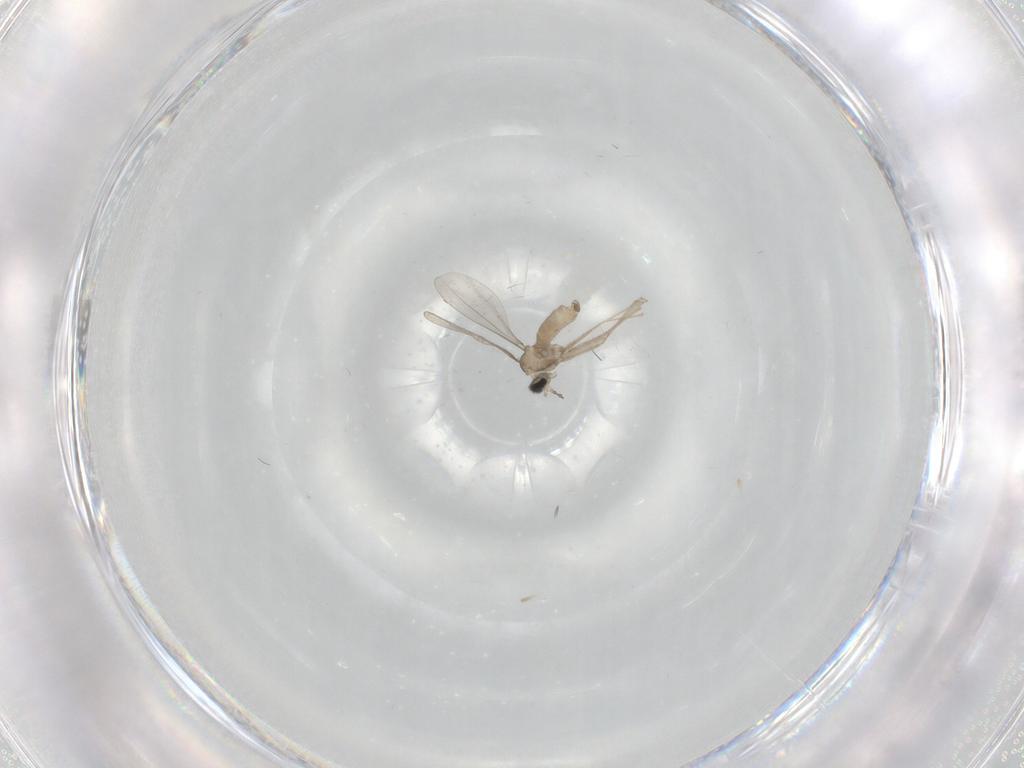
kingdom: Animalia
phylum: Arthropoda
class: Insecta
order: Diptera
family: Cecidomyiidae
